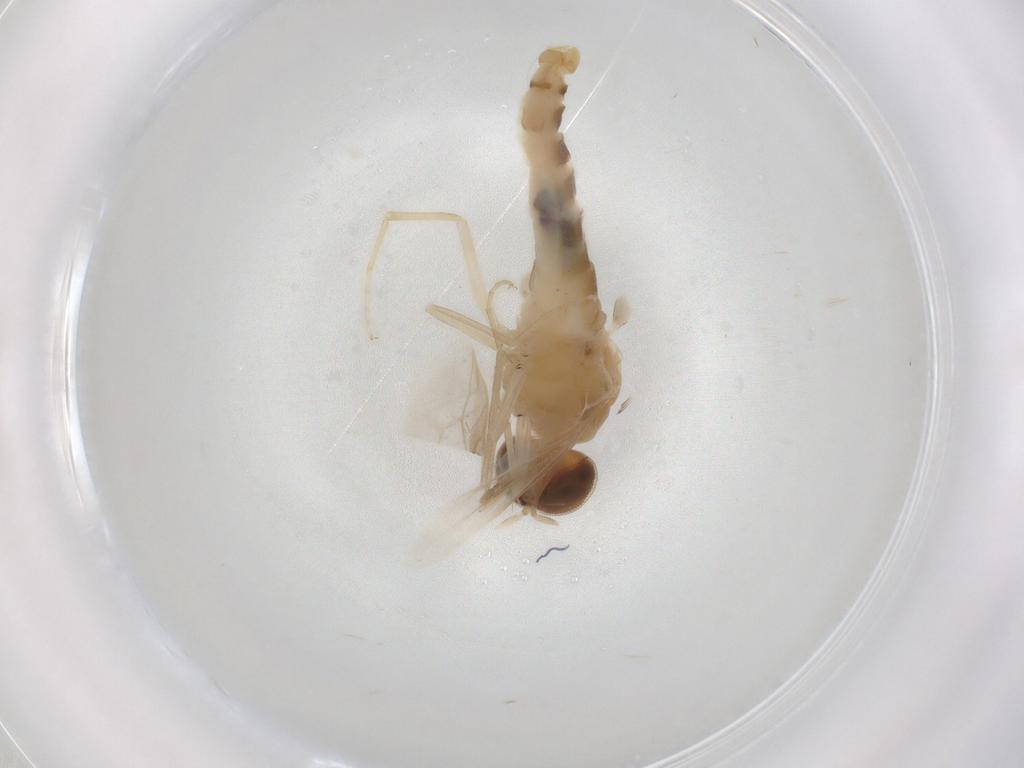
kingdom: Animalia
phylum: Arthropoda
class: Insecta
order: Diptera
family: Scenopinidae
